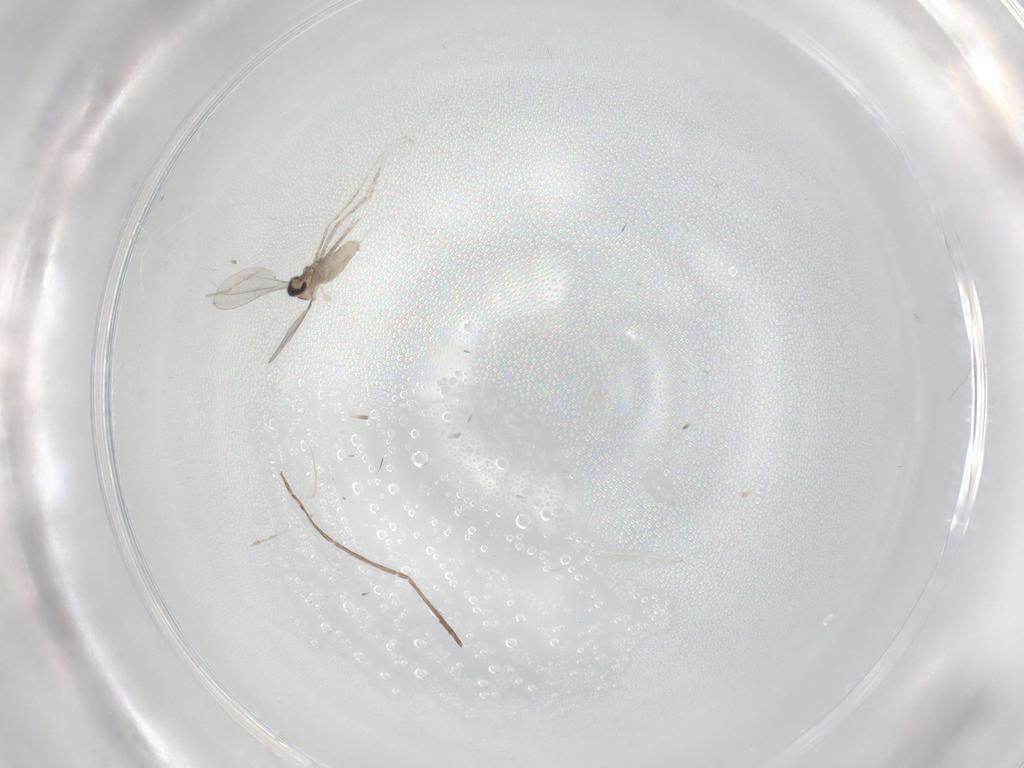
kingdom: Animalia
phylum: Arthropoda
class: Insecta
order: Diptera
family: Cecidomyiidae
